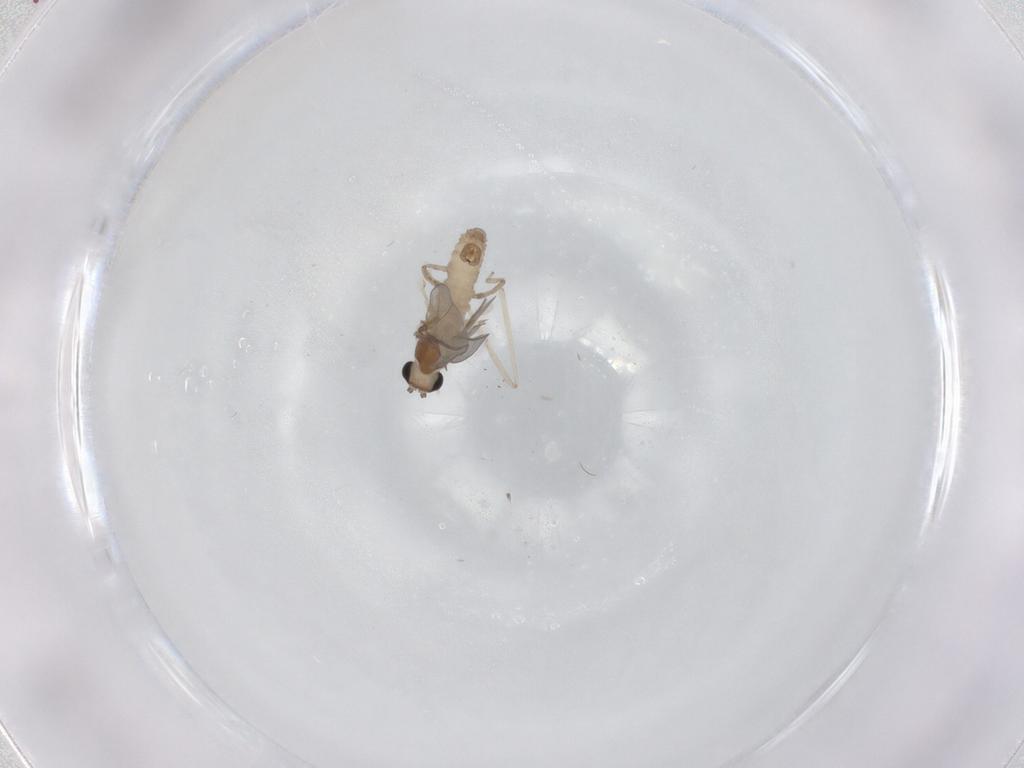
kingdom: Animalia
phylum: Arthropoda
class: Insecta
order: Diptera
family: Cecidomyiidae
